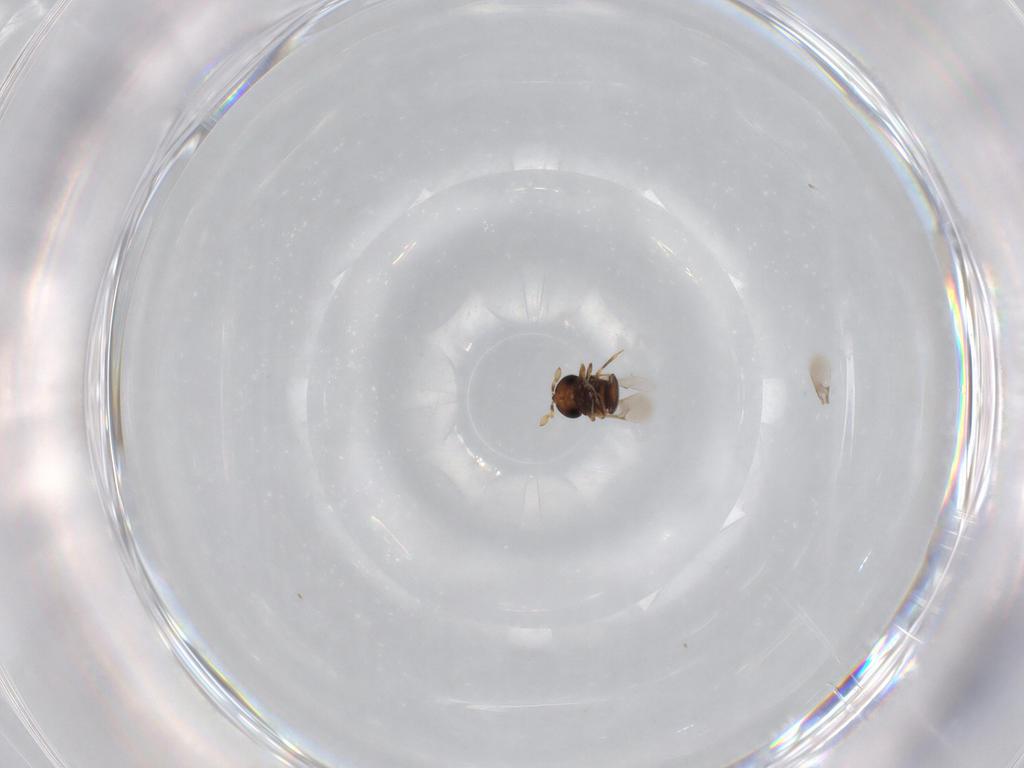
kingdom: Animalia
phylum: Arthropoda
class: Insecta
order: Hymenoptera
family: Scelionidae
